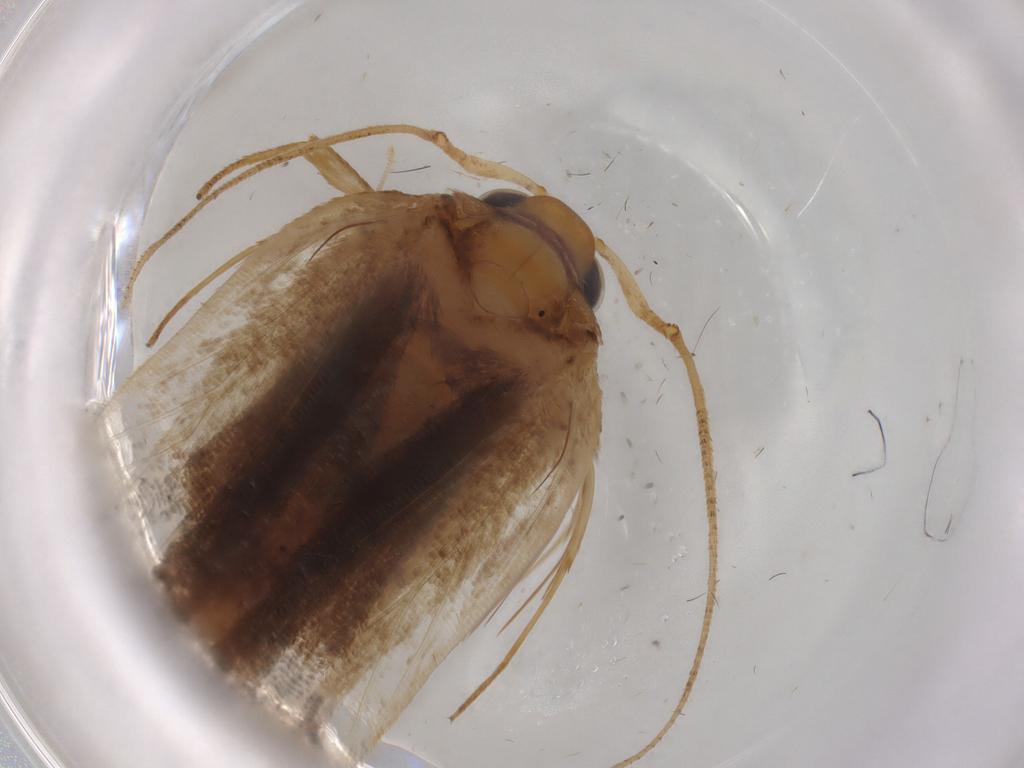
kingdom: Animalia
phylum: Arthropoda
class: Insecta
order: Lepidoptera
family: Autostichidae
